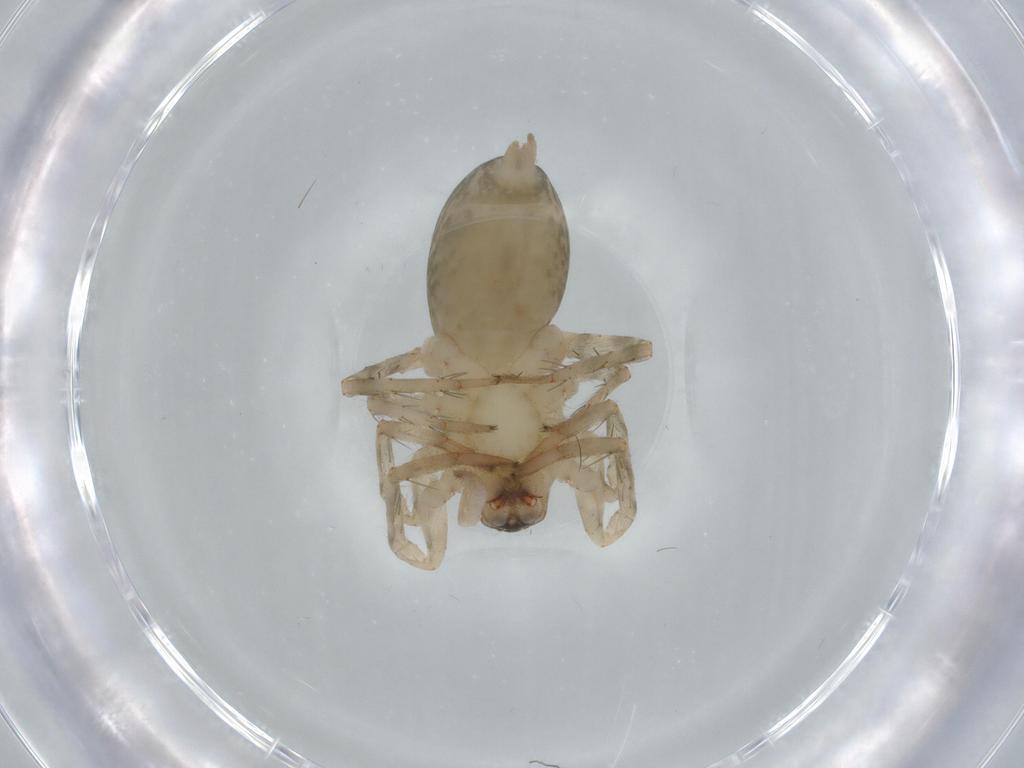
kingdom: Animalia
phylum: Arthropoda
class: Arachnida
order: Araneae
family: Amaurobiidae
